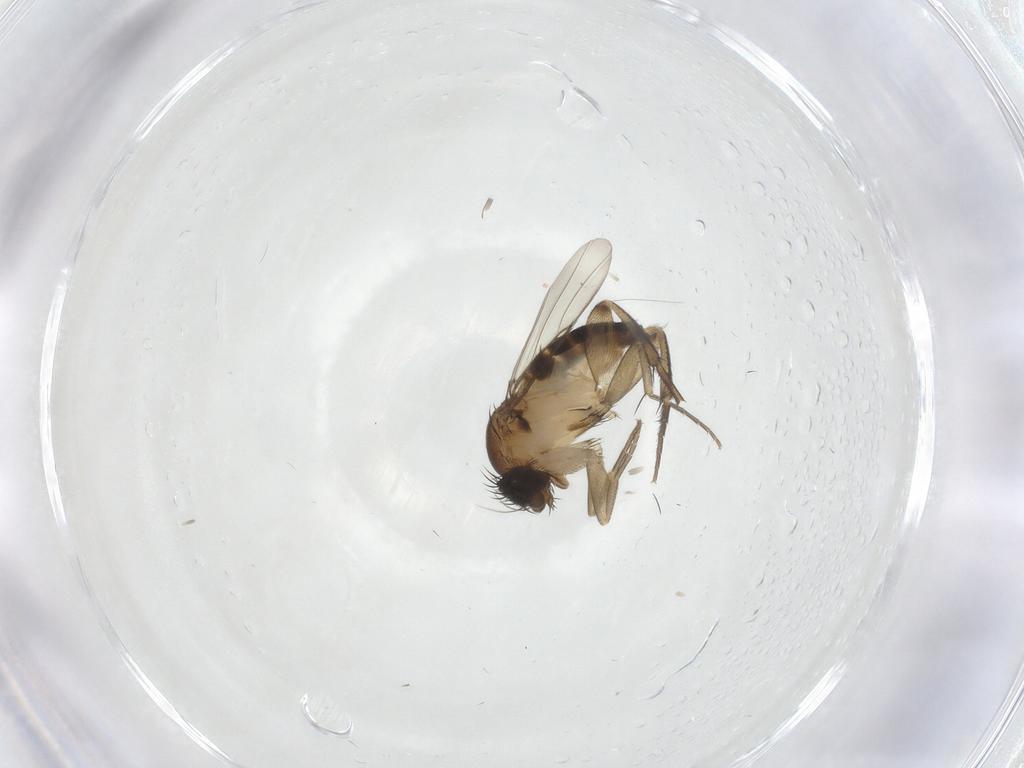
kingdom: Animalia
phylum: Arthropoda
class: Insecta
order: Diptera
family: Phoridae
